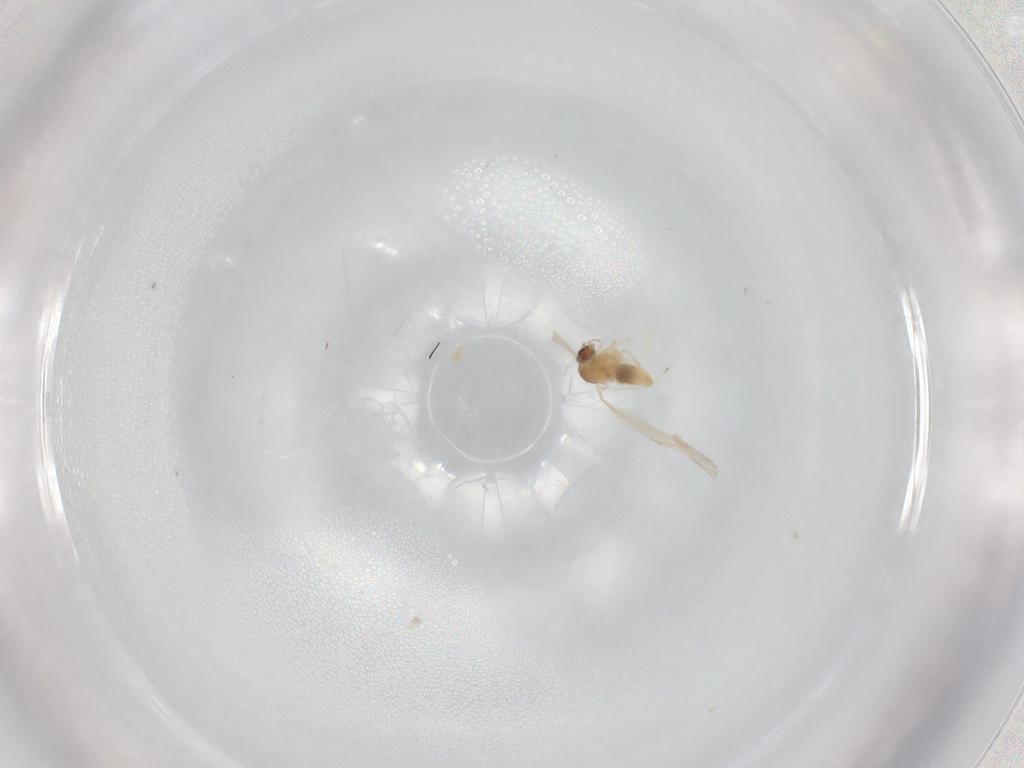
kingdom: Animalia
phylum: Arthropoda
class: Insecta
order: Diptera
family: Cecidomyiidae
